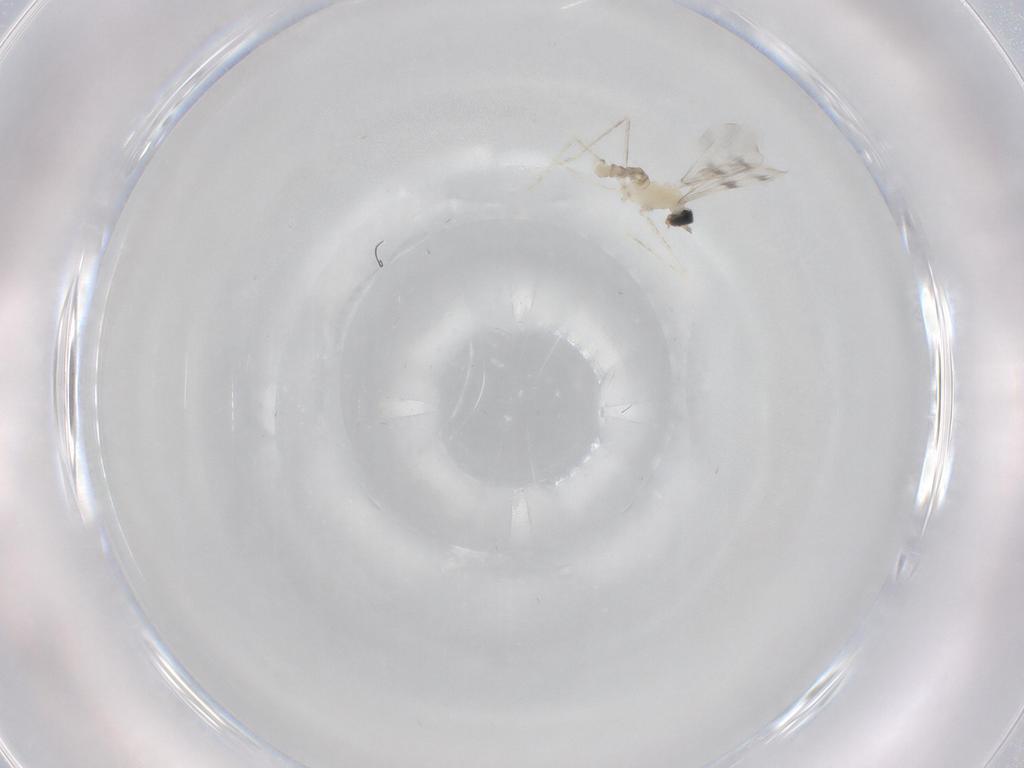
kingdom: Animalia
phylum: Arthropoda
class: Insecta
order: Diptera
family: Cecidomyiidae
